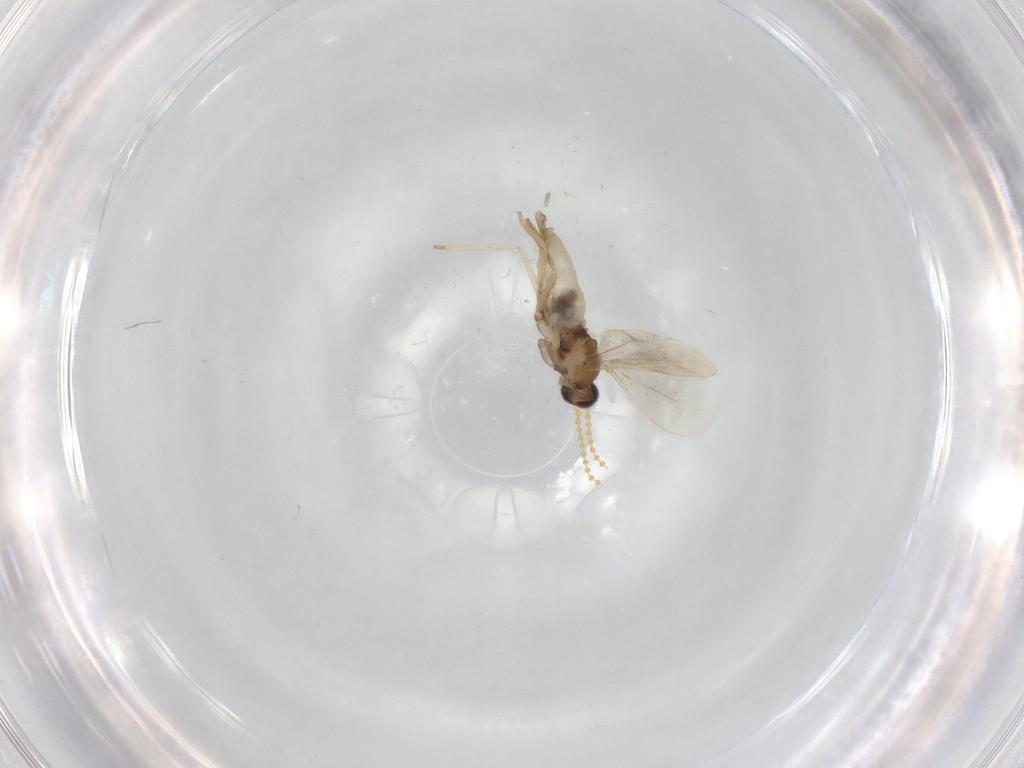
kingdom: Animalia
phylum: Arthropoda
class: Insecta
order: Diptera
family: Cecidomyiidae
